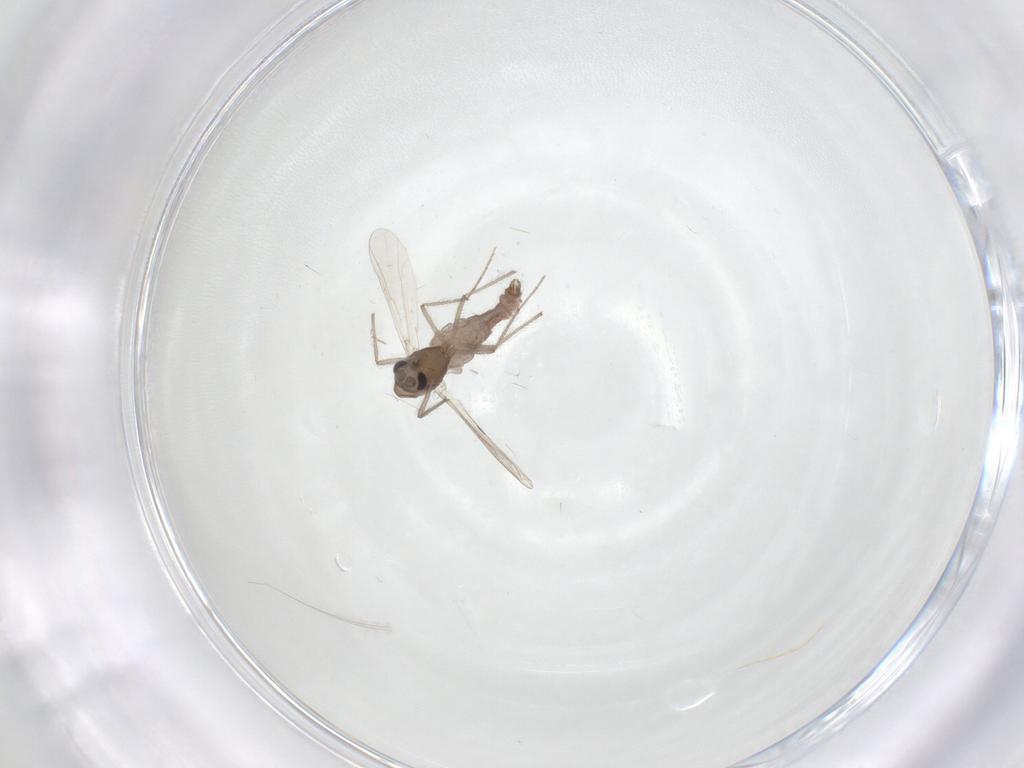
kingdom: Animalia
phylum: Arthropoda
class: Insecta
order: Diptera
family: Chironomidae
